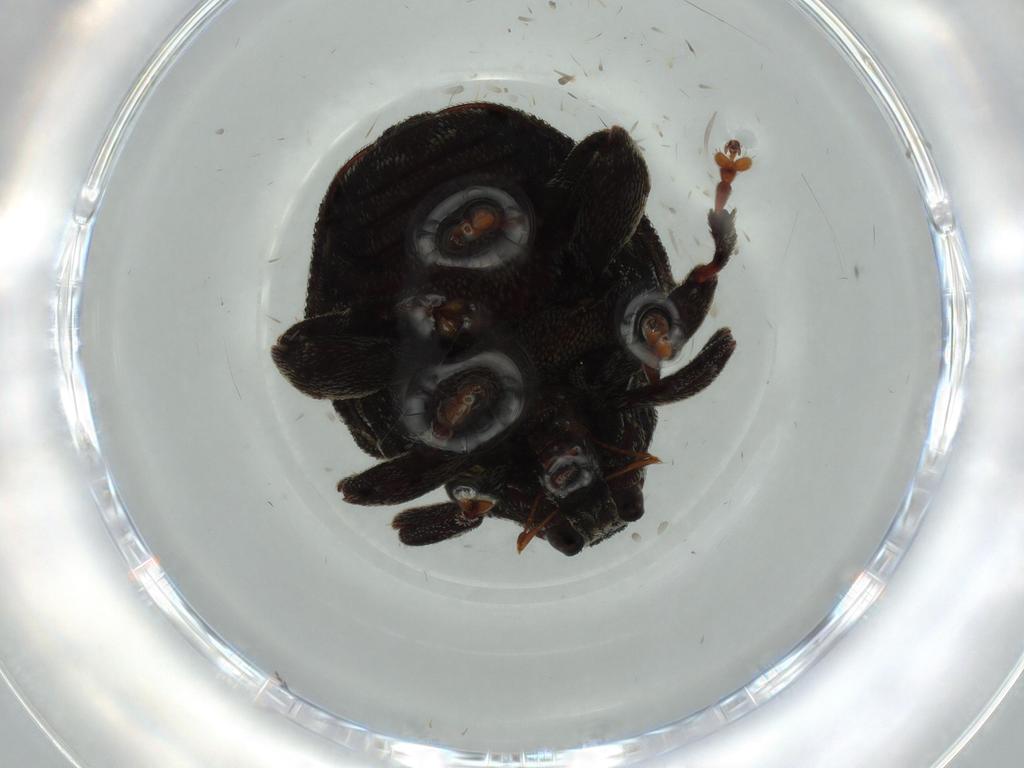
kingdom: Animalia
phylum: Arthropoda
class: Insecta
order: Coleoptera
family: Curculionidae
